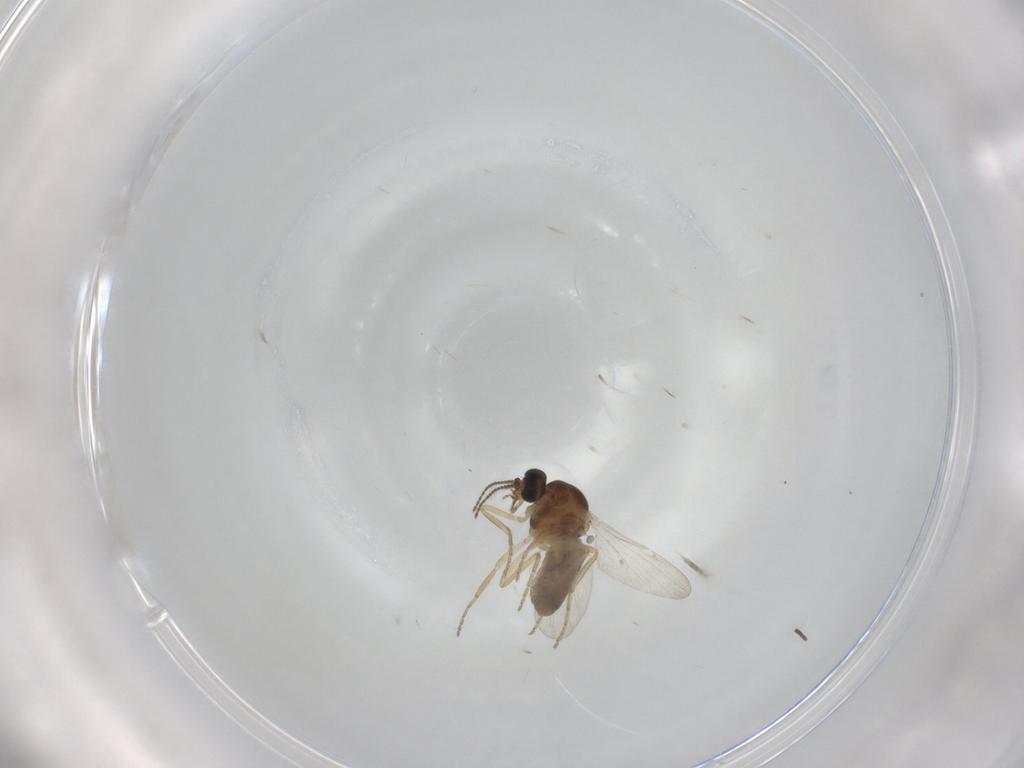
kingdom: Animalia
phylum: Arthropoda
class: Insecta
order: Diptera
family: Ceratopogonidae
